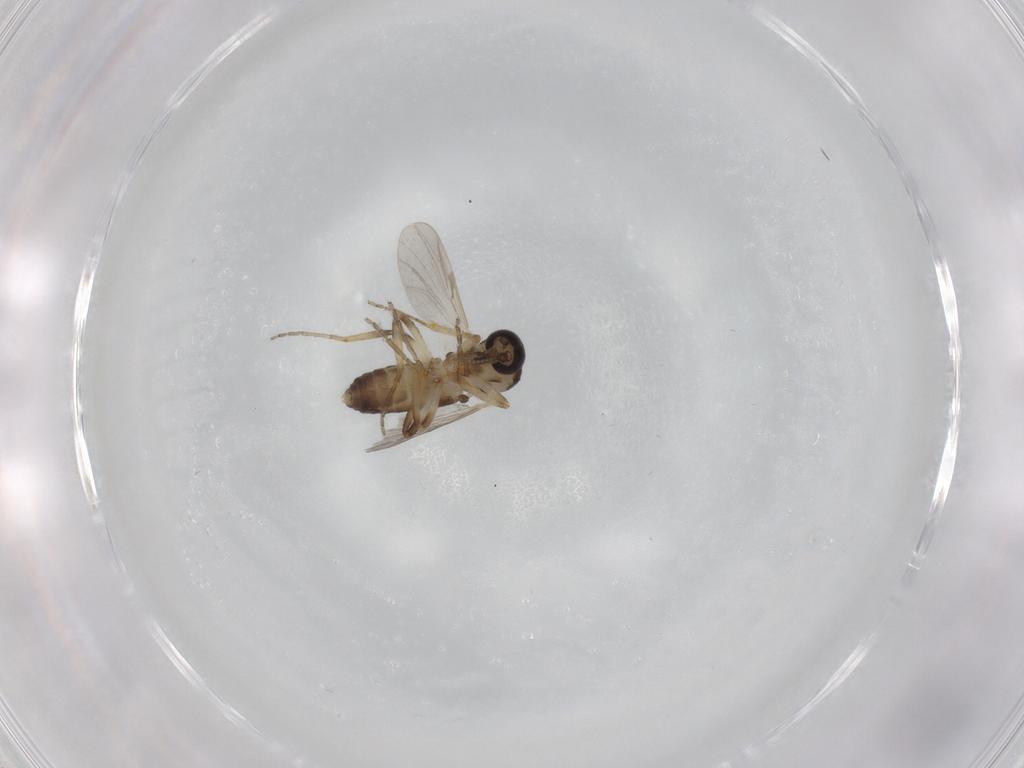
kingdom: Animalia
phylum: Arthropoda
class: Insecta
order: Diptera
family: Ceratopogonidae
